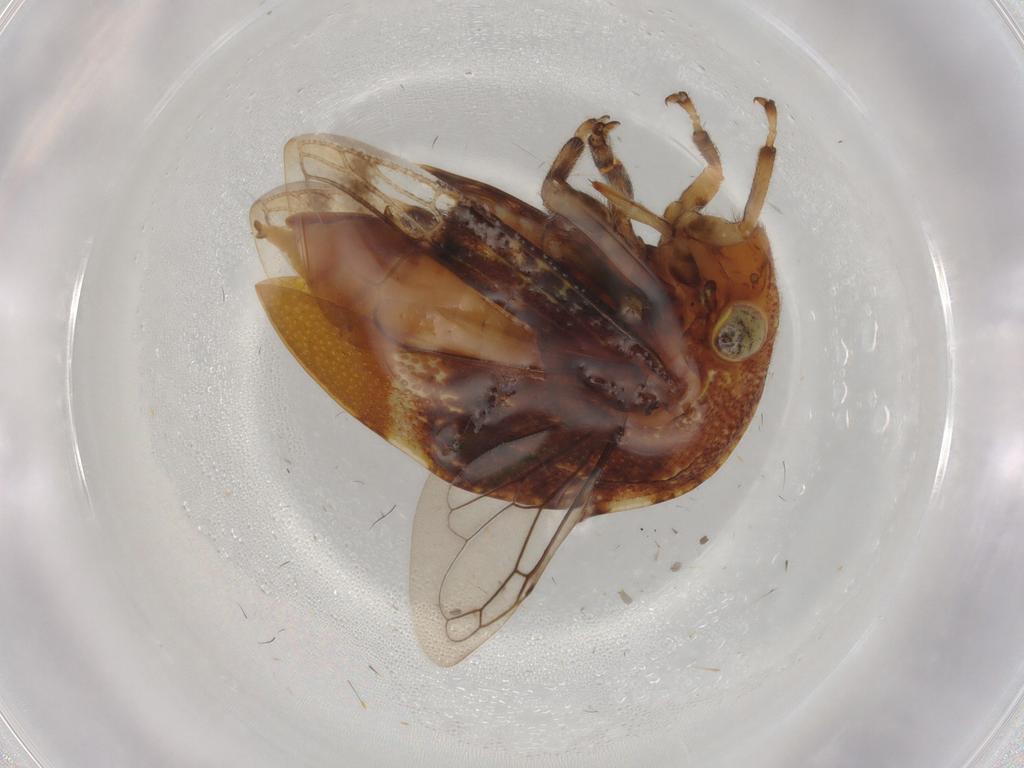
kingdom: Animalia
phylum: Arthropoda
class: Insecta
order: Hemiptera
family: Membracidae
